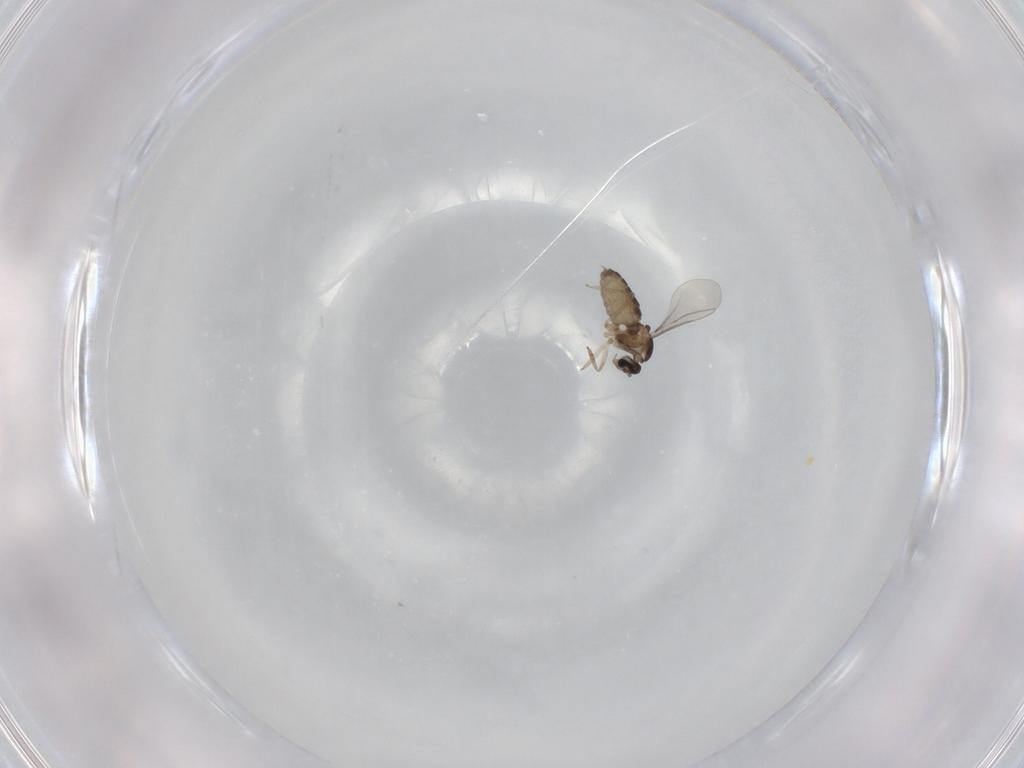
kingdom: Animalia
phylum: Arthropoda
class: Insecta
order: Diptera
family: Cecidomyiidae
